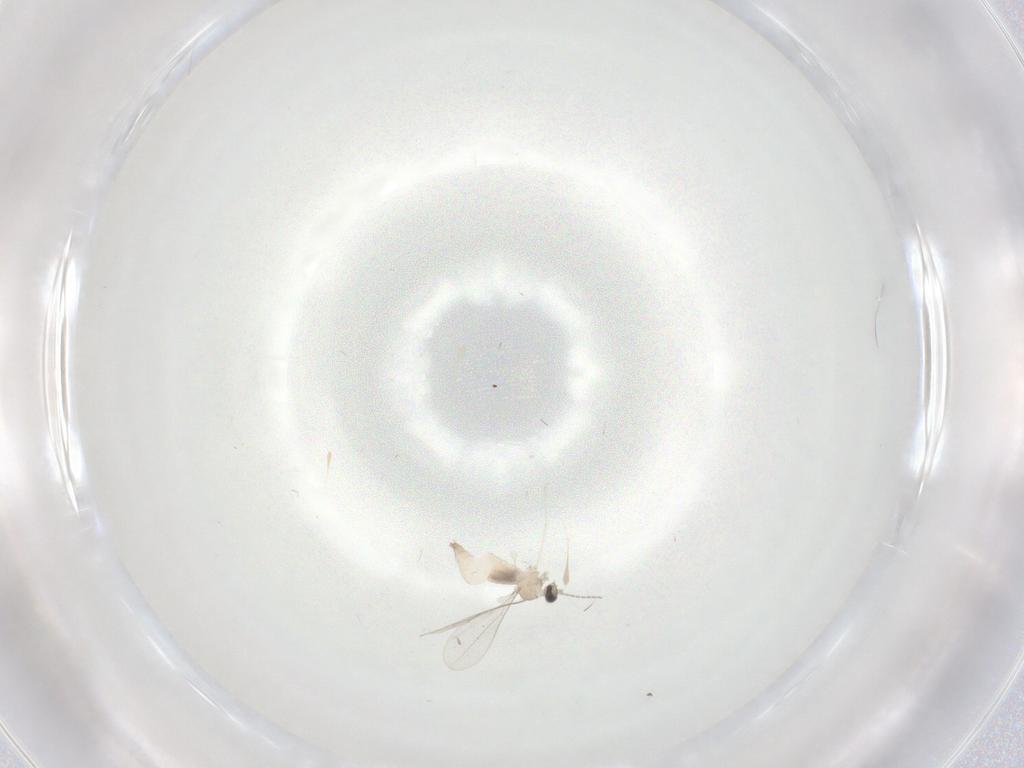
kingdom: Animalia
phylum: Arthropoda
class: Insecta
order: Diptera
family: Cecidomyiidae
